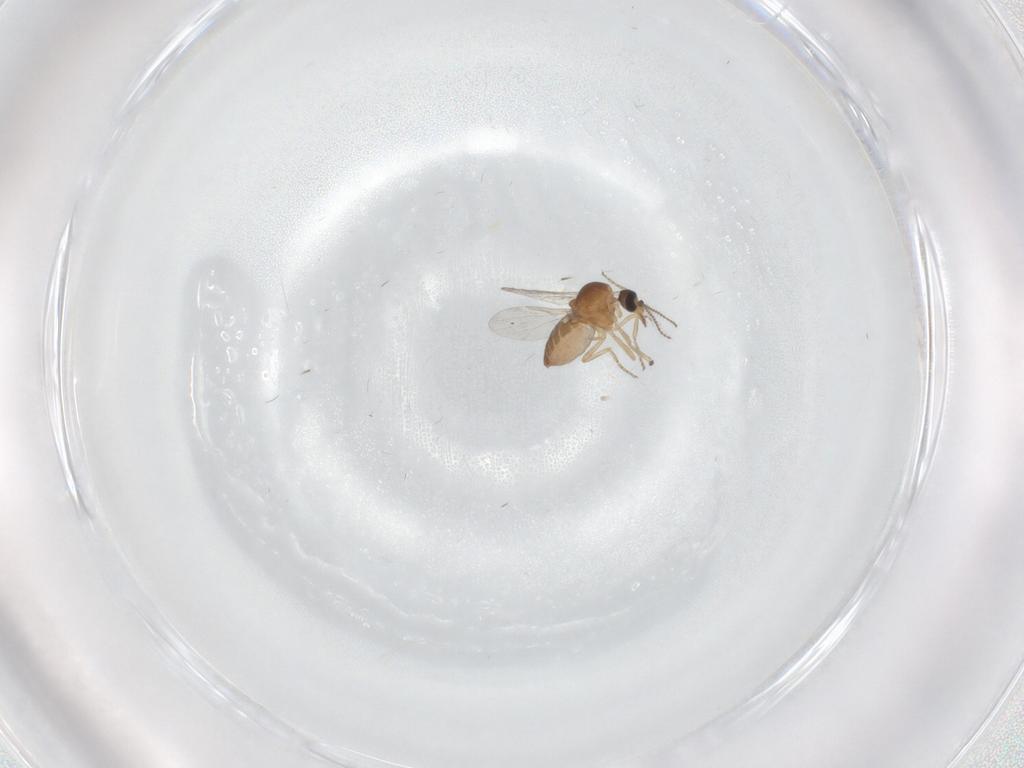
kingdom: Animalia
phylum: Arthropoda
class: Insecta
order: Diptera
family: Ceratopogonidae
